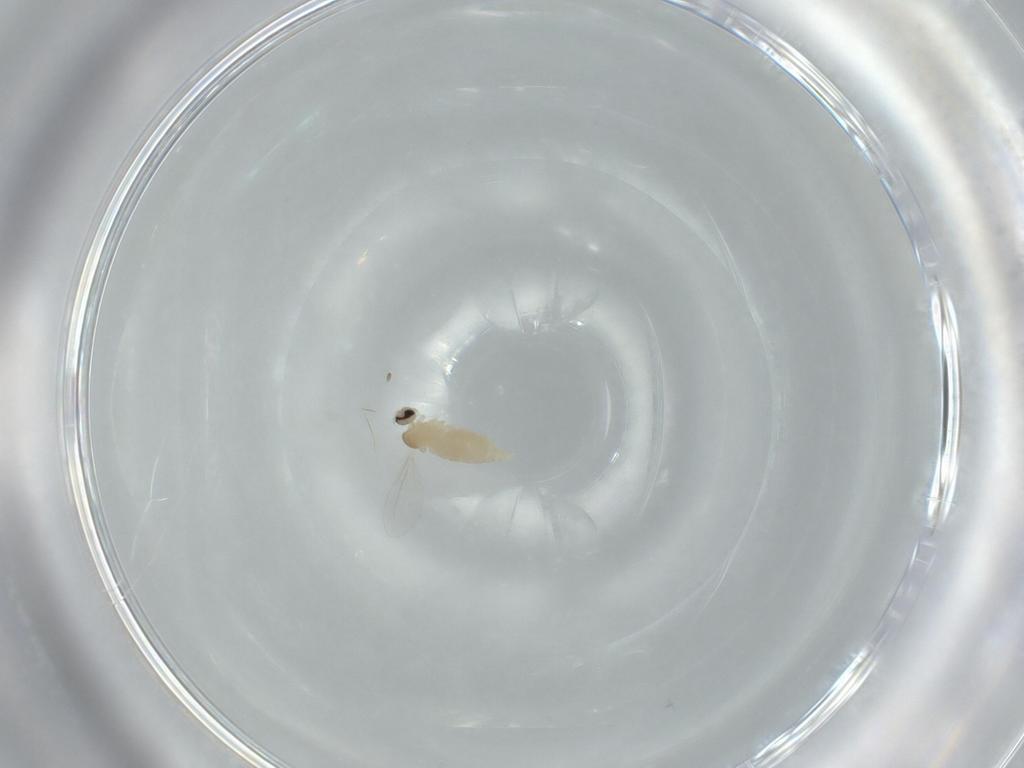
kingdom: Animalia
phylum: Arthropoda
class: Insecta
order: Diptera
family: Cecidomyiidae
